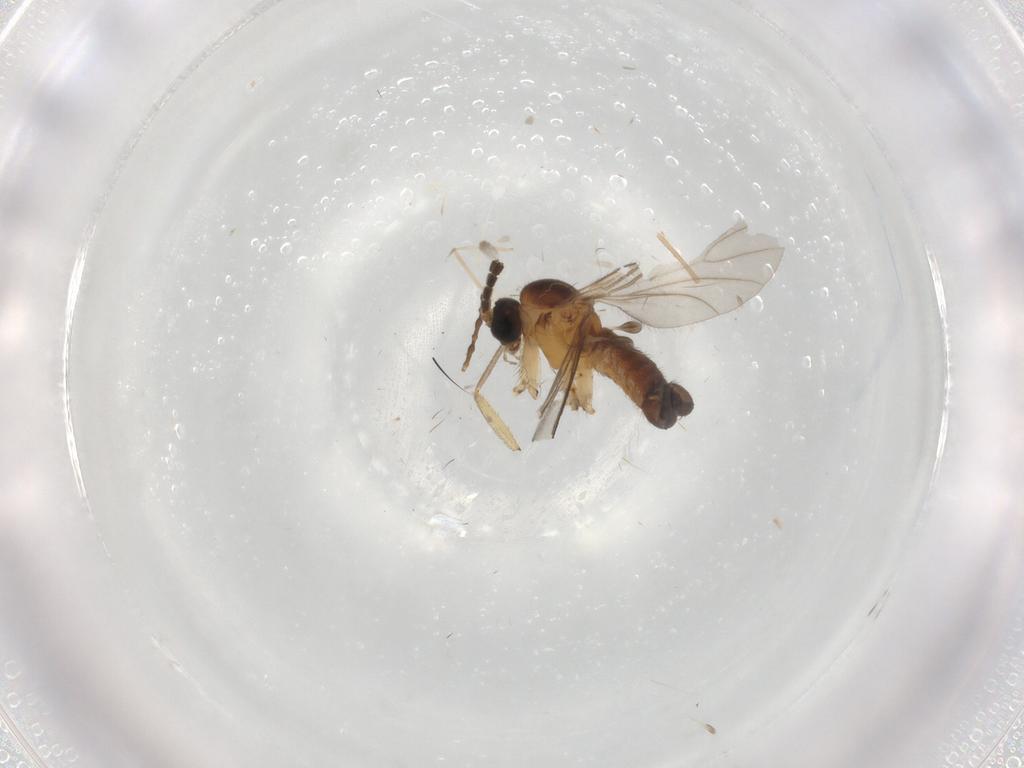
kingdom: Animalia
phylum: Arthropoda
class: Insecta
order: Diptera
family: Sciaridae
